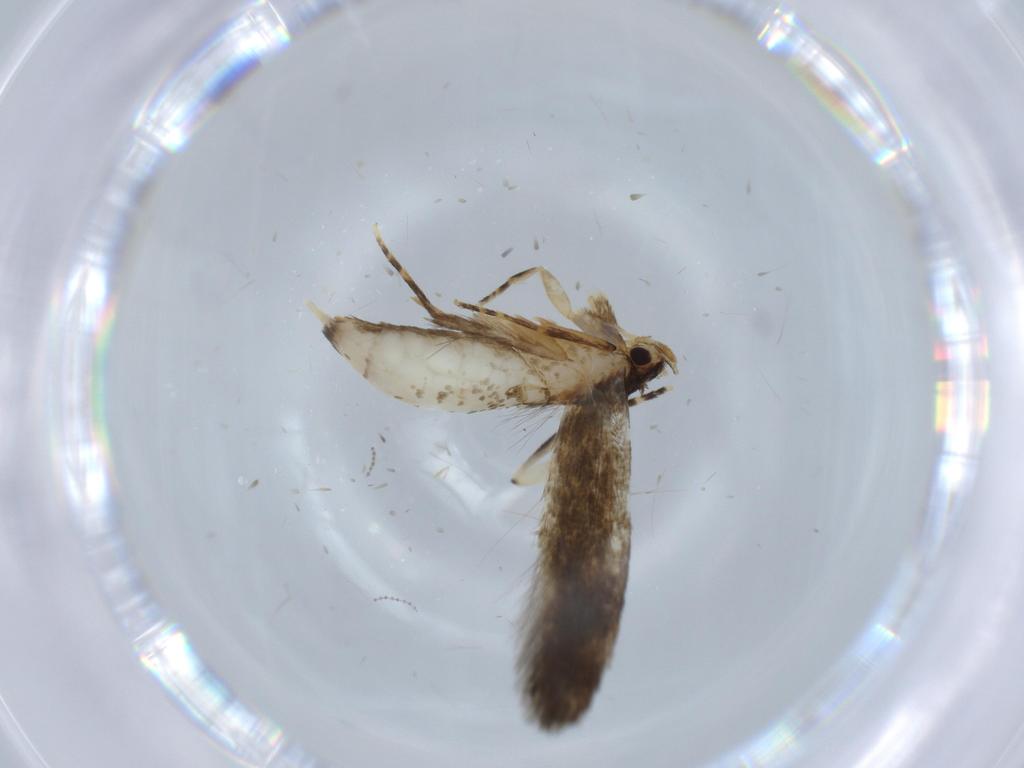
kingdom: Animalia
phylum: Arthropoda
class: Insecta
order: Lepidoptera
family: Tineidae
